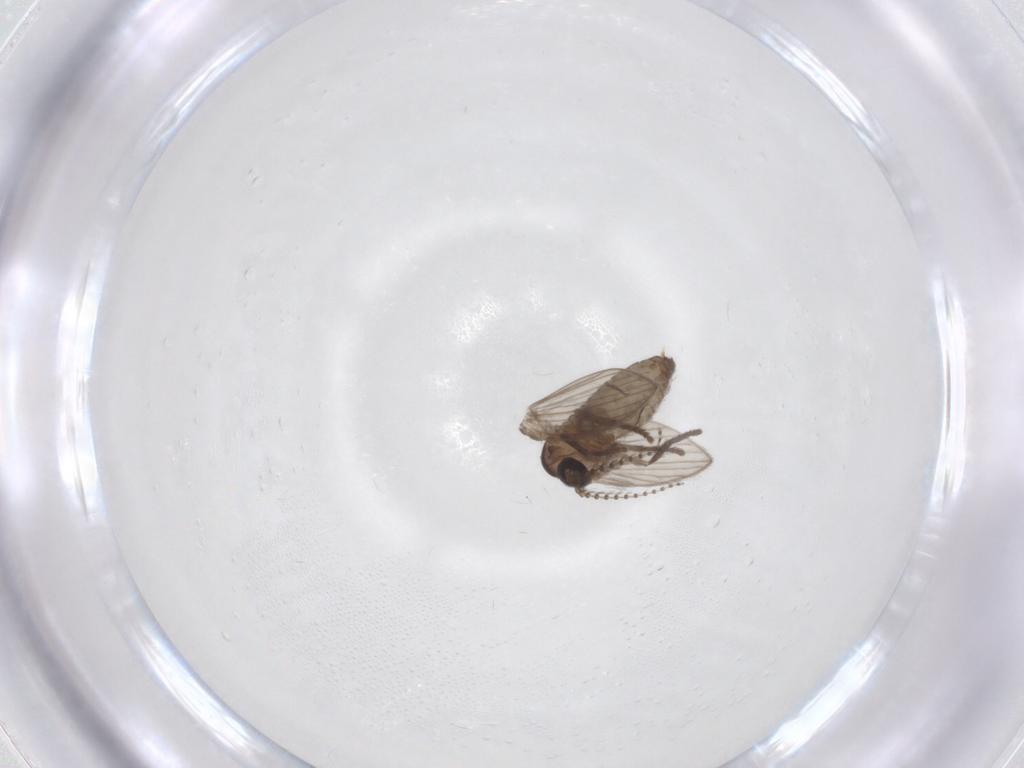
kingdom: Animalia
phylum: Arthropoda
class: Insecta
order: Diptera
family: Psychodidae
